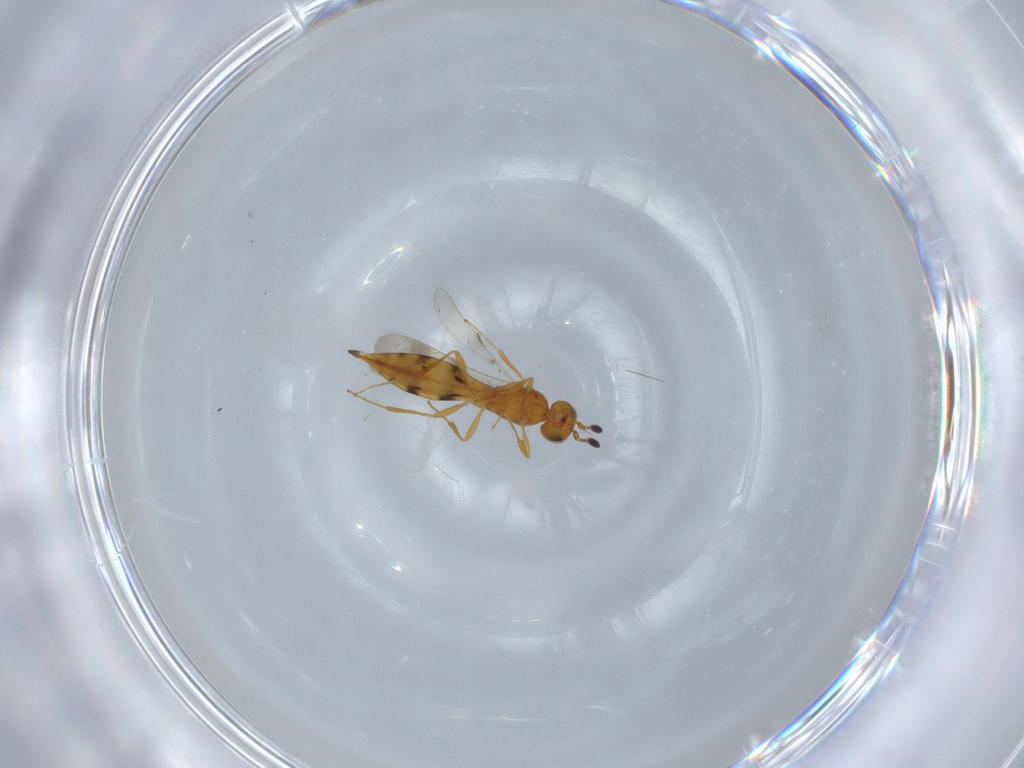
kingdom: Animalia
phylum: Arthropoda
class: Insecta
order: Hymenoptera
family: Scelionidae
